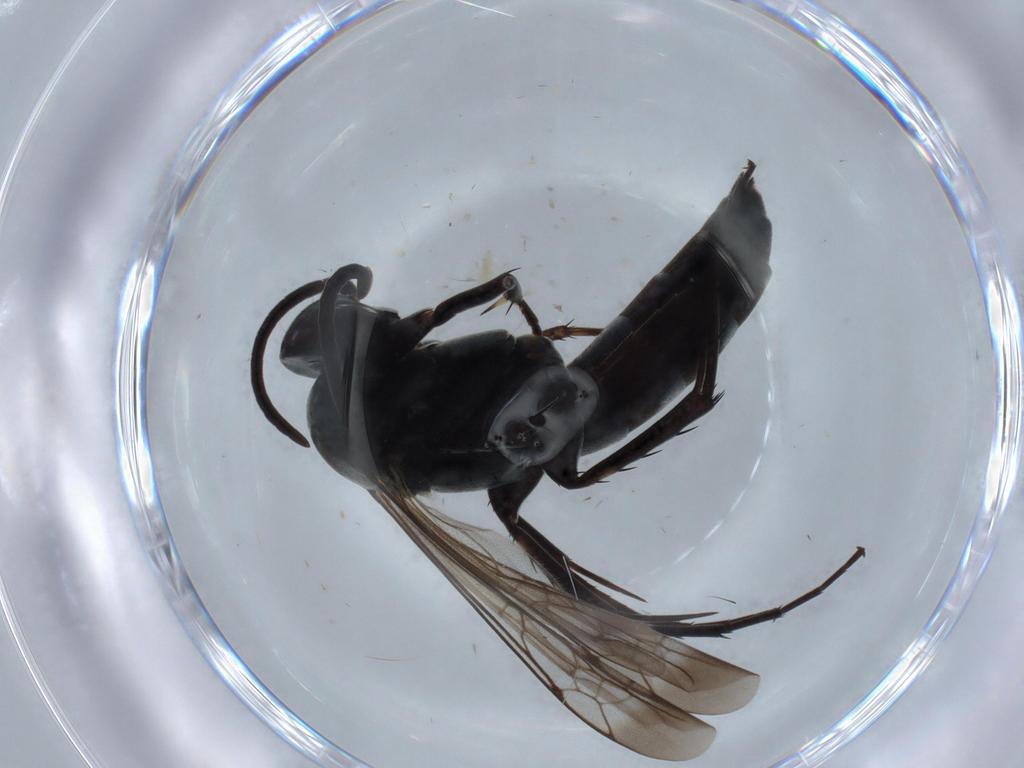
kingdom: Animalia
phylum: Arthropoda
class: Insecta
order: Hymenoptera
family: Pompilidae
